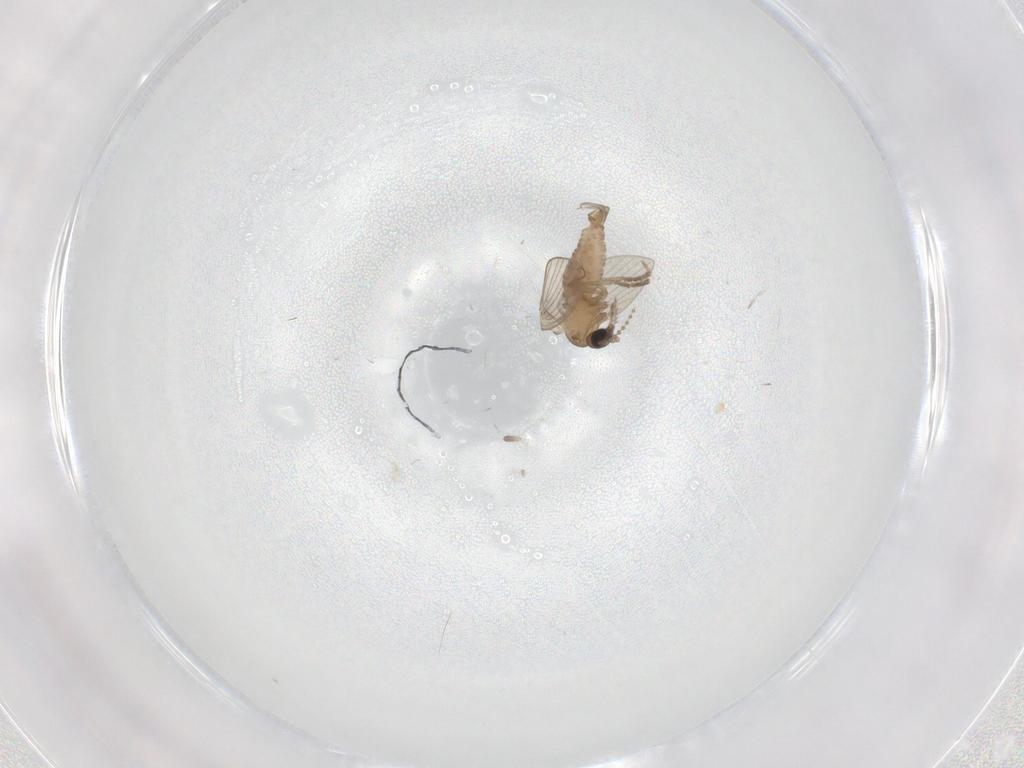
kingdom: Animalia
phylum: Arthropoda
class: Insecta
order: Diptera
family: Psychodidae
